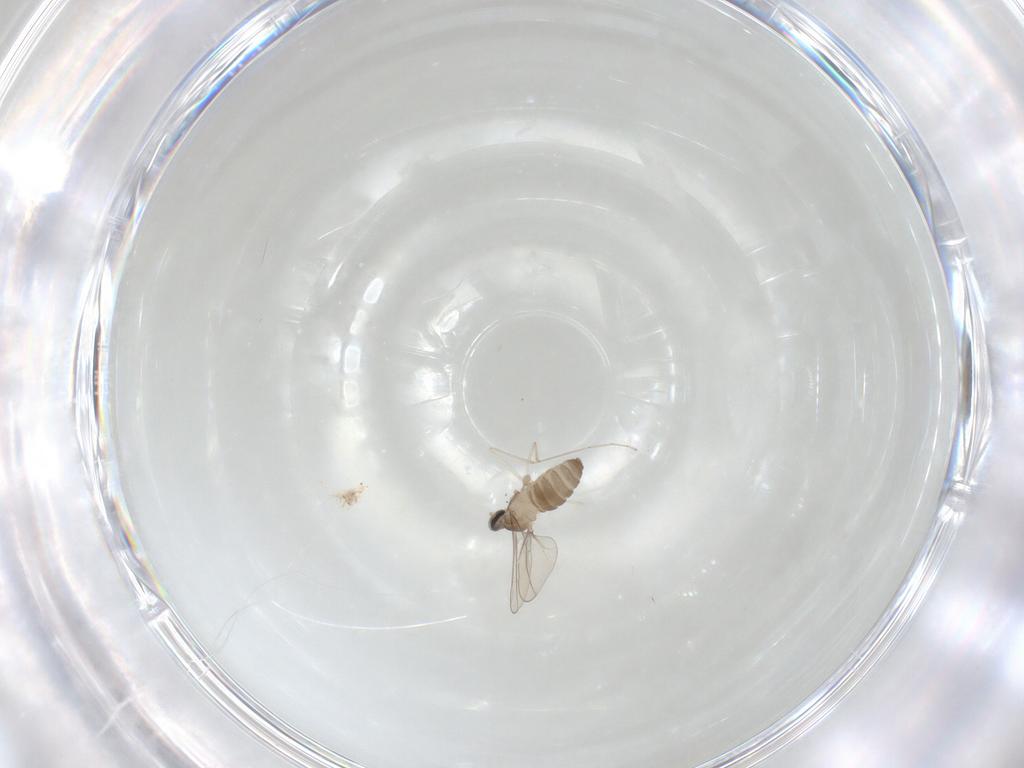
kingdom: Animalia
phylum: Arthropoda
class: Insecta
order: Diptera
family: Cecidomyiidae
